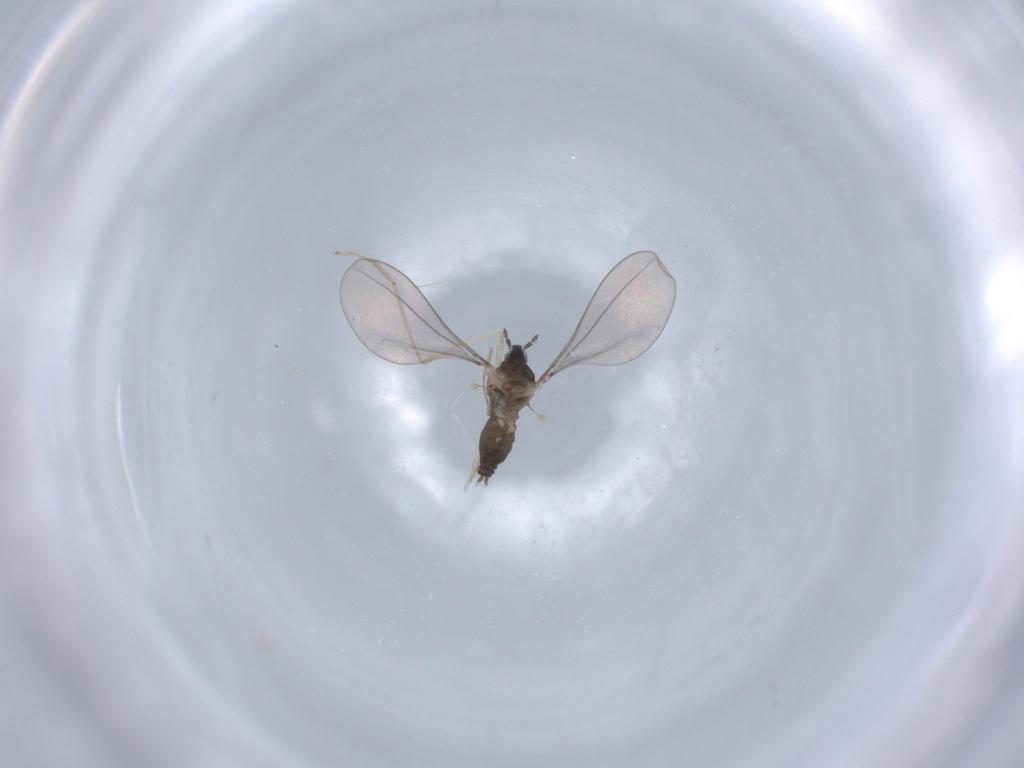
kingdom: Animalia
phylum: Arthropoda
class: Insecta
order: Diptera
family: Cecidomyiidae
